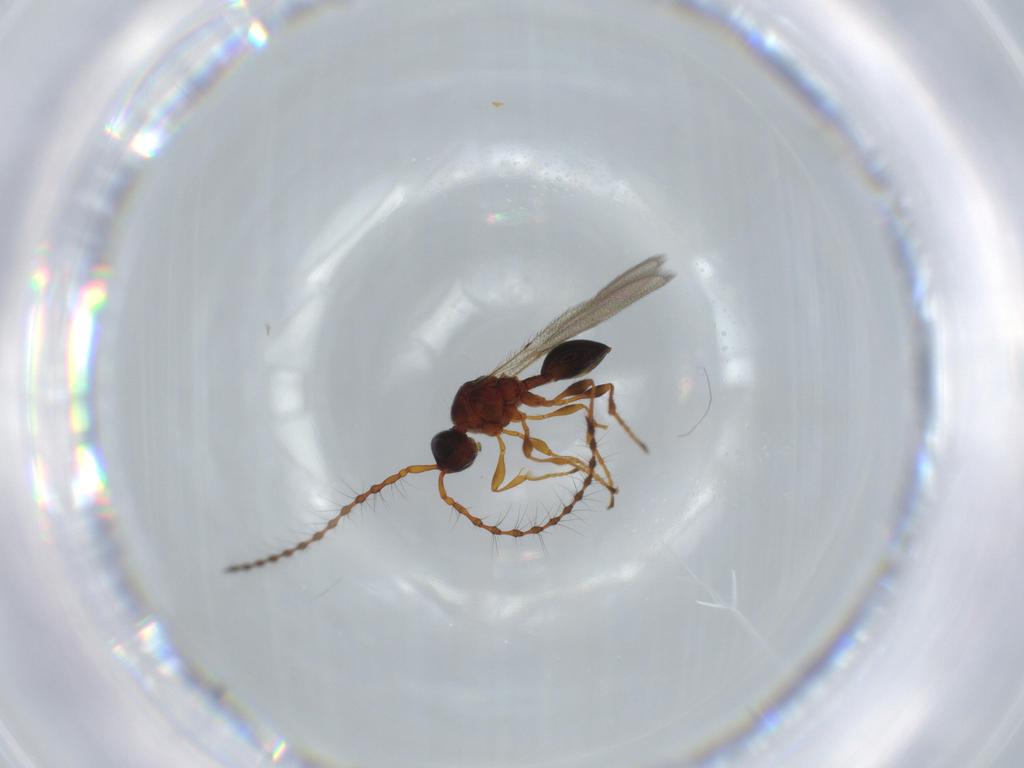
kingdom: Animalia
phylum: Arthropoda
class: Insecta
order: Hymenoptera
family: Diapriidae
